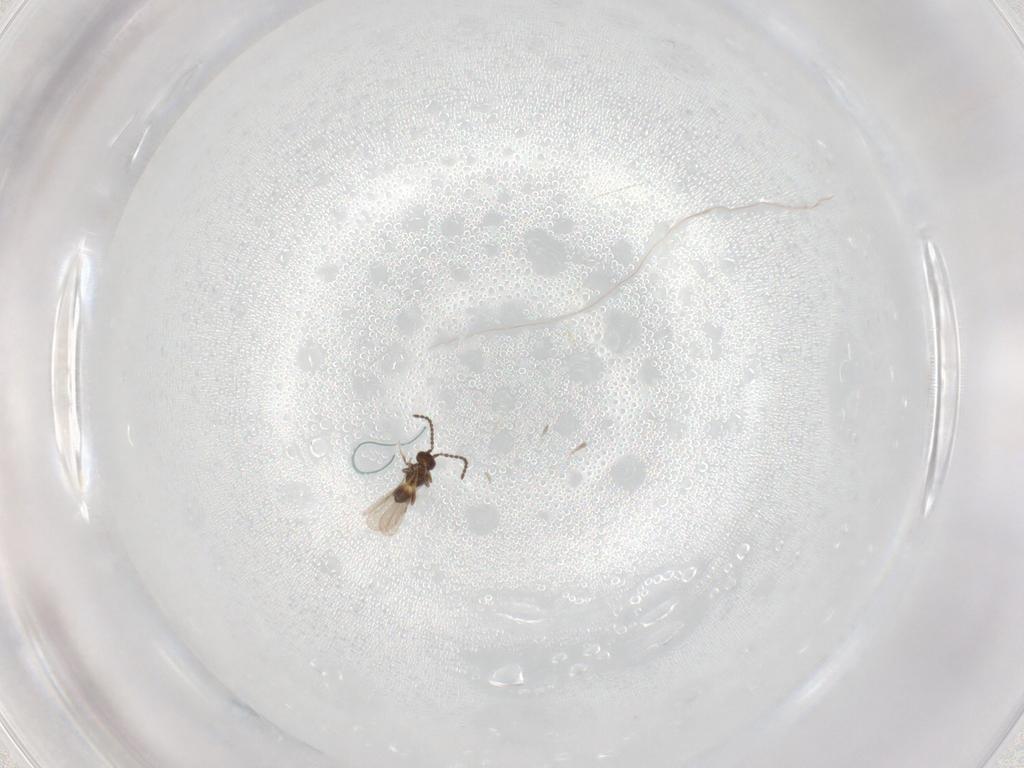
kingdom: Animalia
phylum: Arthropoda
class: Insecta
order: Hymenoptera
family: Ceraphronidae
